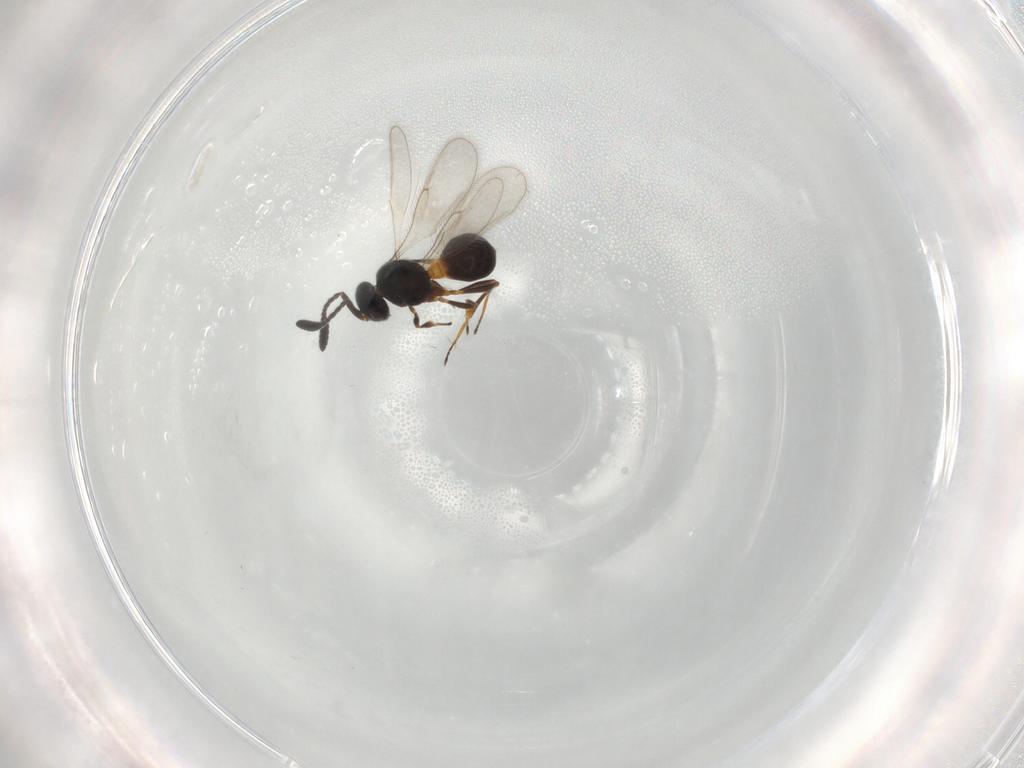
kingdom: Animalia
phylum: Arthropoda
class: Insecta
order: Hymenoptera
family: Scelionidae
